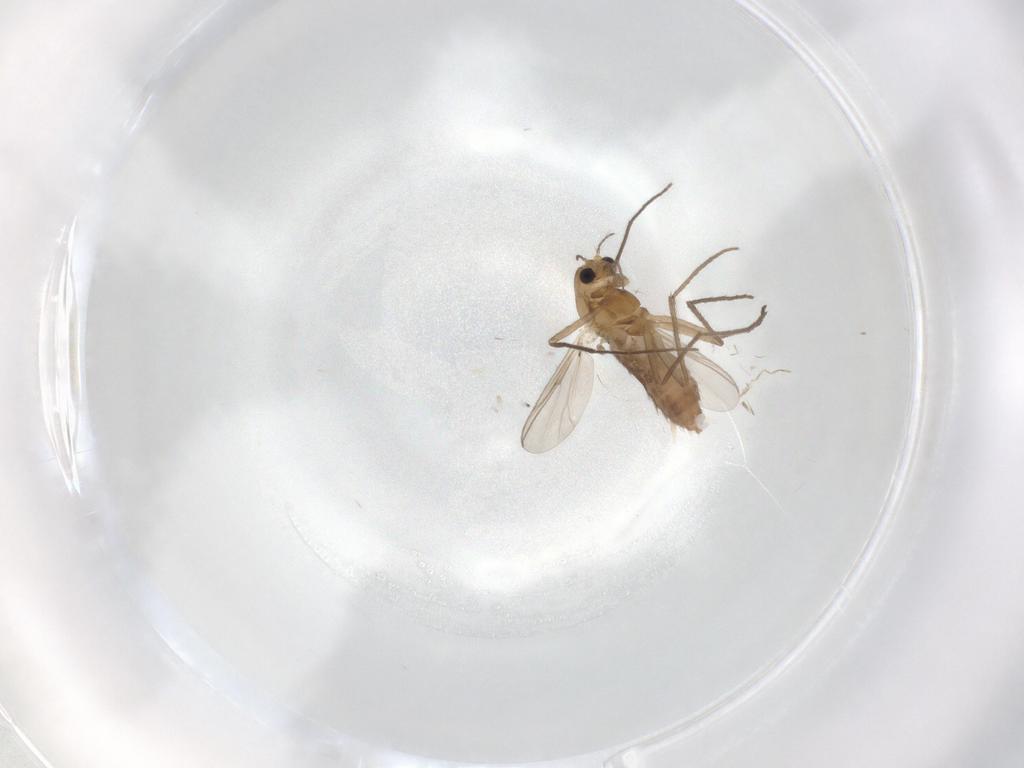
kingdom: Animalia
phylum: Arthropoda
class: Insecta
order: Diptera
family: Chironomidae
